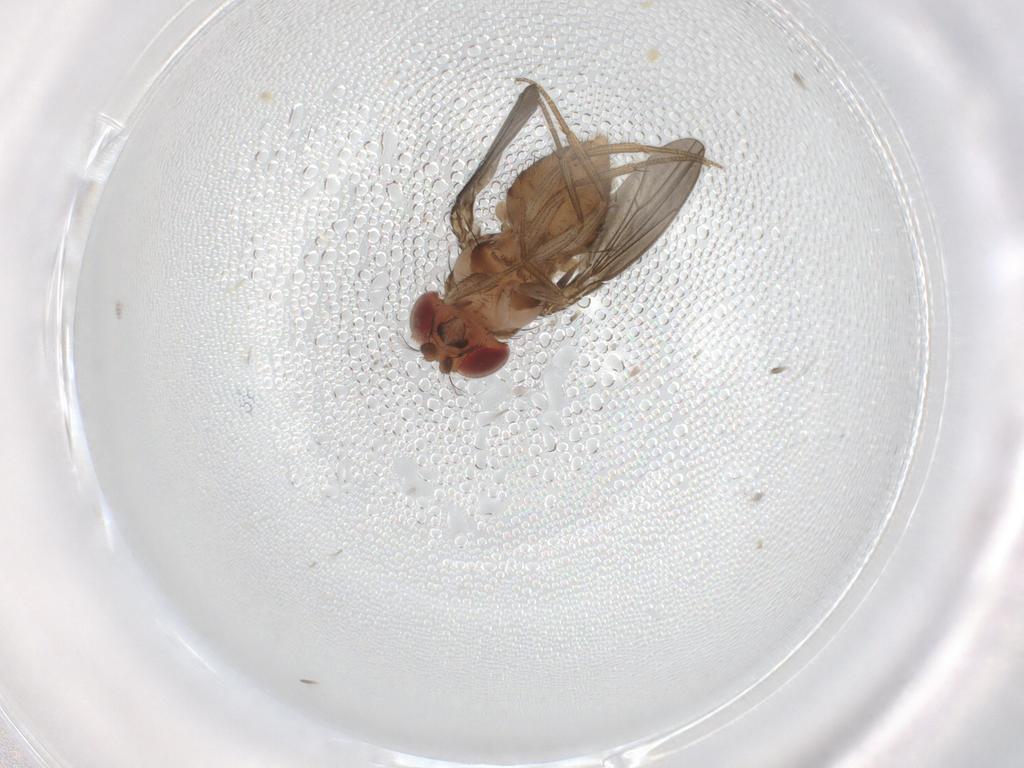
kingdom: Animalia
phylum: Arthropoda
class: Insecta
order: Diptera
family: Drosophilidae
